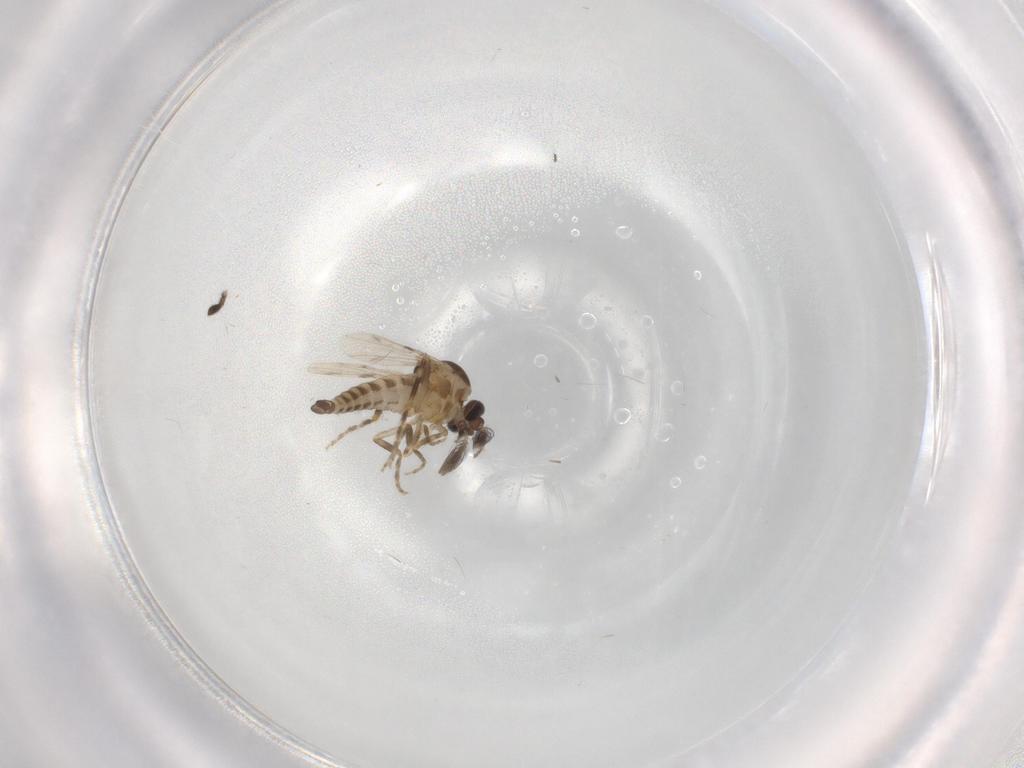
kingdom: Animalia
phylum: Arthropoda
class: Insecta
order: Diptera
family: Ceratopogonidae
